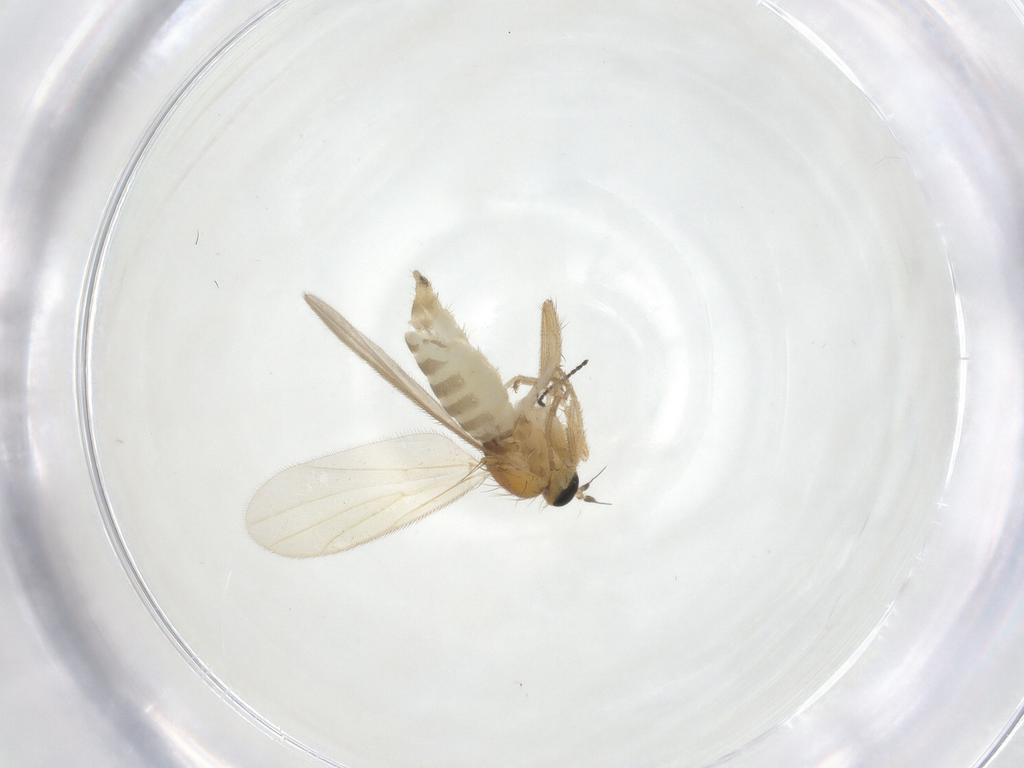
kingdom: Animalia
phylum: Arthropoda
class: Insecta
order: Diptera
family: Hybotidae
